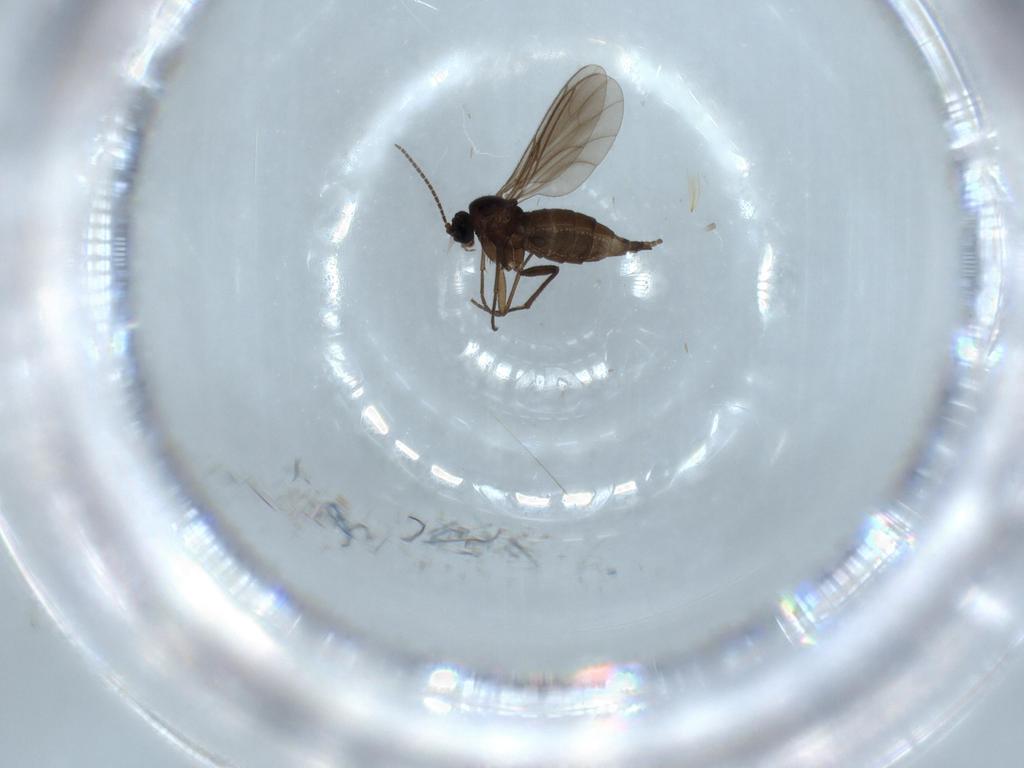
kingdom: Animalia
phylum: Arthropoda
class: Insecta
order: Diptera
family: Sciaridae
